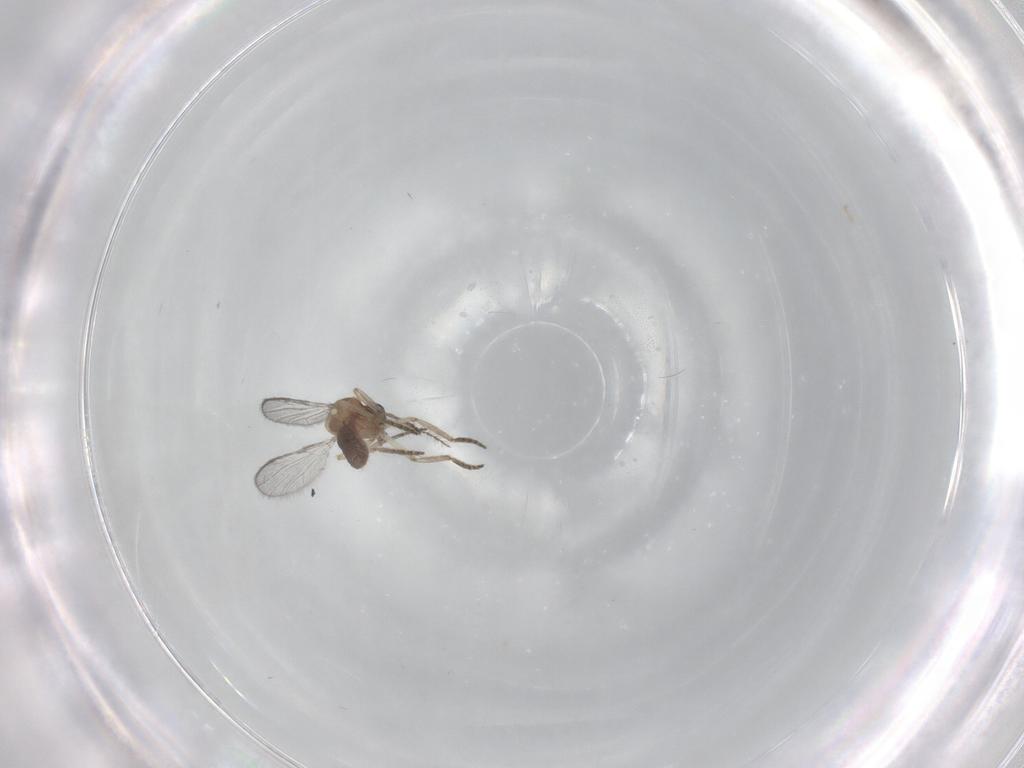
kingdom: Animalia
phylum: Arthropoda
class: Insecta
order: Diptera
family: Ceratopogonidae
